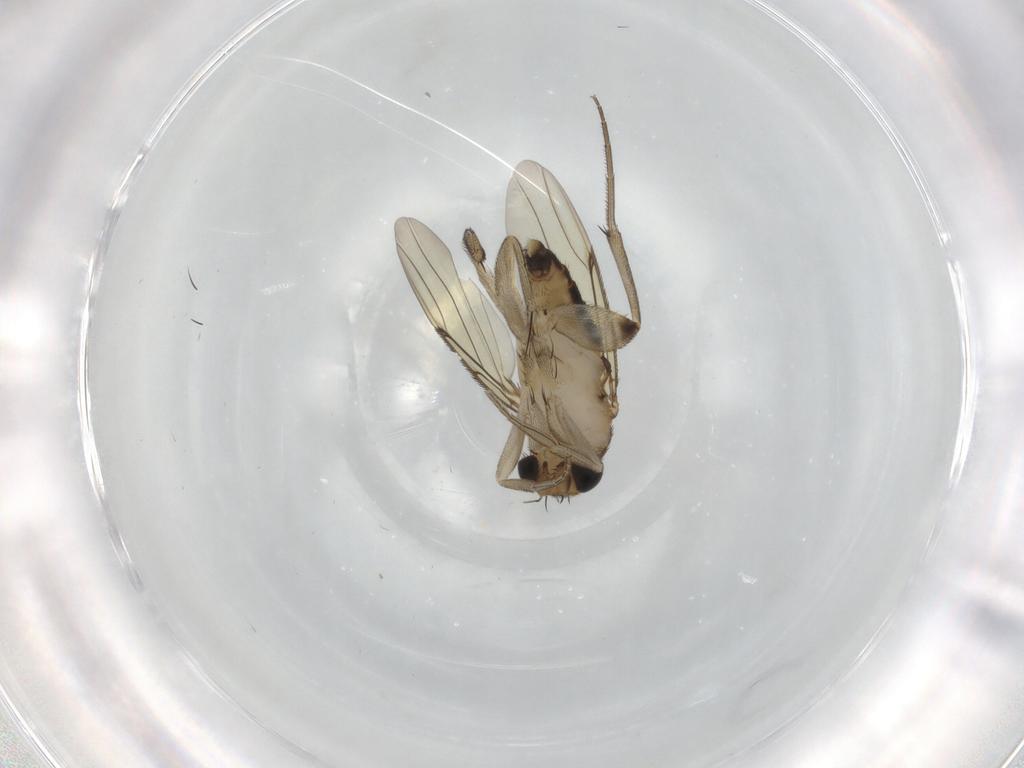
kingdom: Animalia
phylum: Arthropoda
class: Insecta
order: Diptera
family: Phoridae
